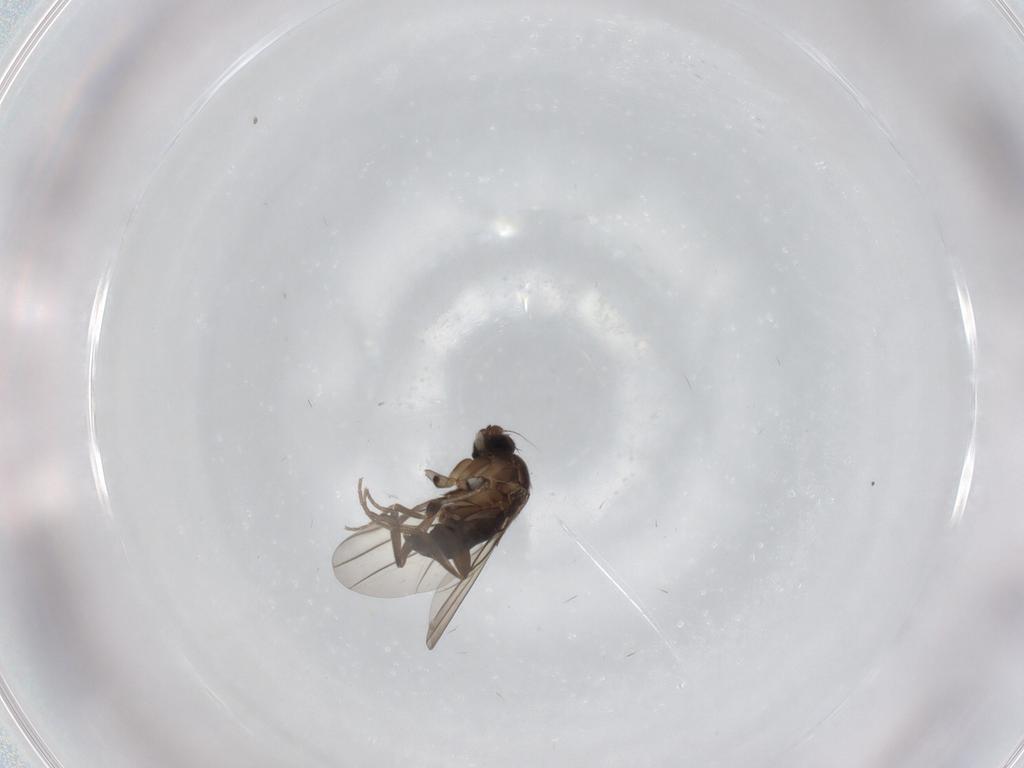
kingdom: Animalia
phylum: Arthropoda
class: Insecta
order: Diptera
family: Phoridae
